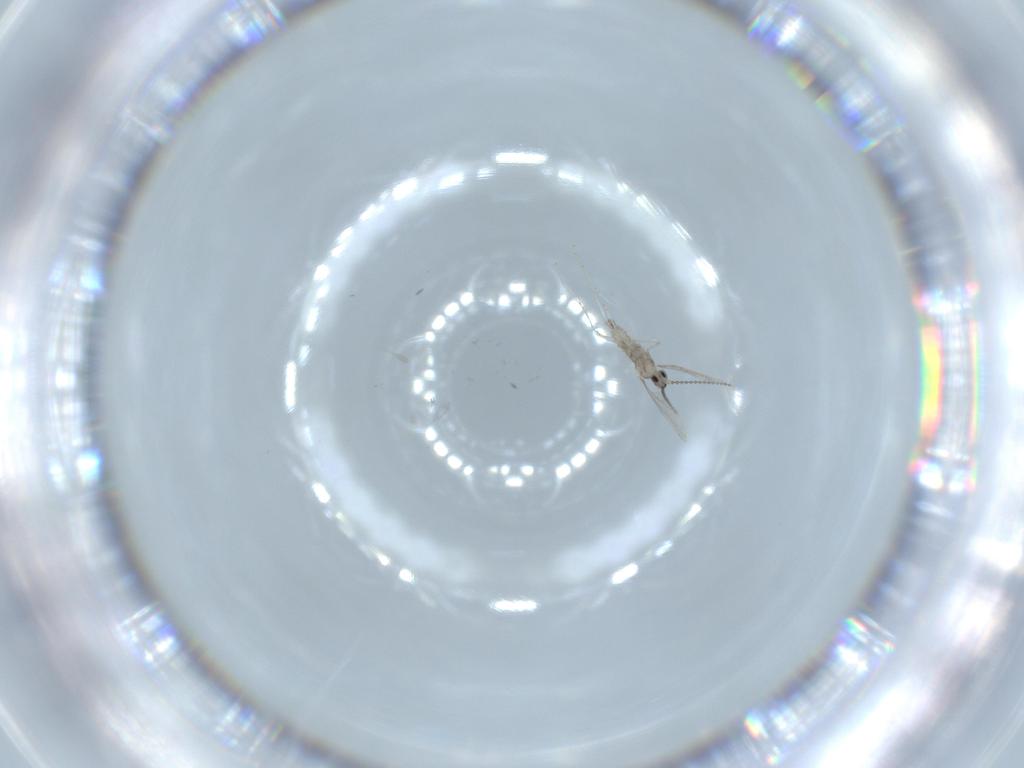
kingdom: Animalia
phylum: Arthropoda
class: Insecta
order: Diptera
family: Cecidomyiidae
